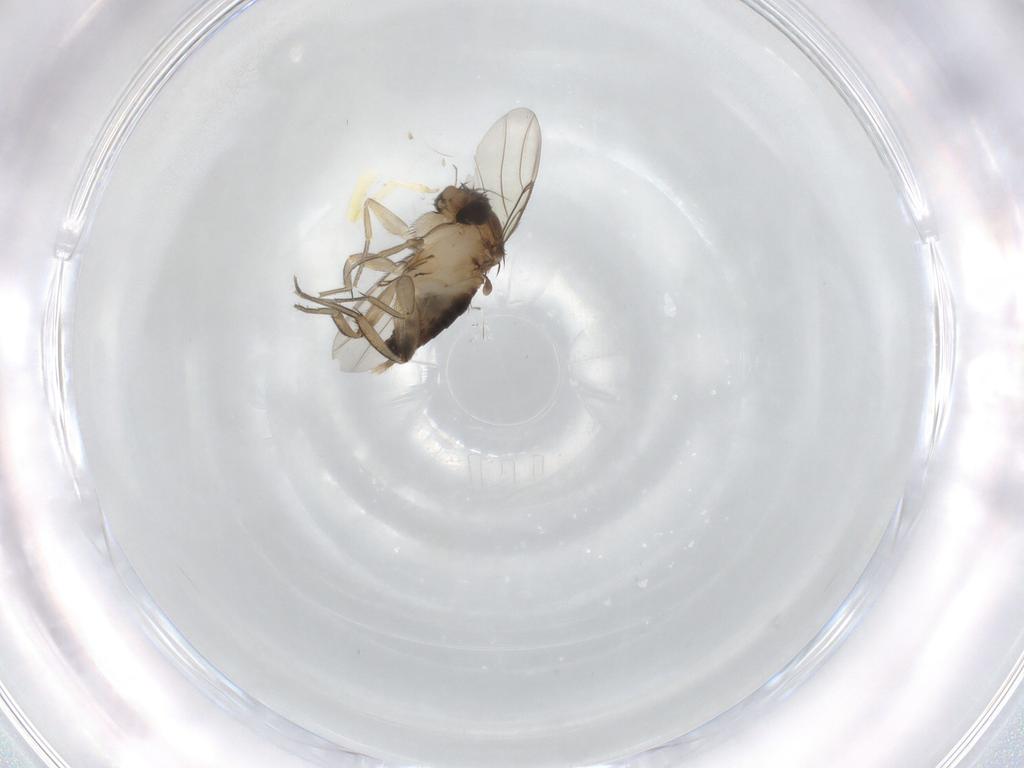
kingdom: Animalia
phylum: Arthropoda
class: Insecta
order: Diptera
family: Phoridae
